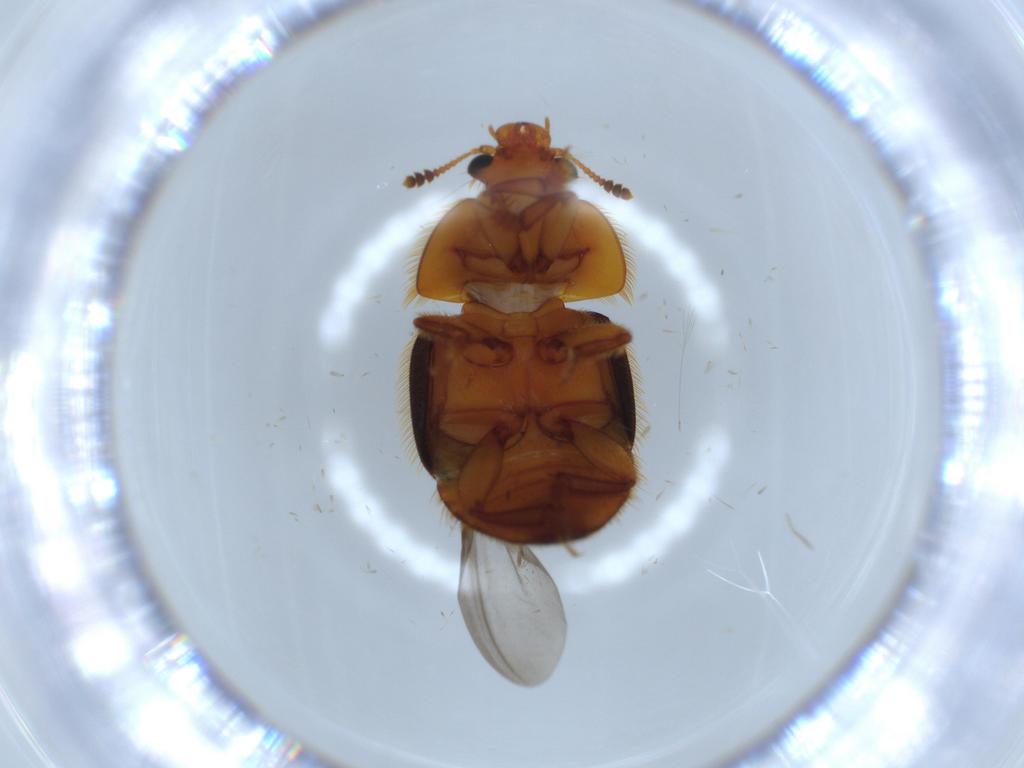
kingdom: Animalia
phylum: Arthropoda
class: Insecta
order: Coleoptera
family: Nitidulidae
